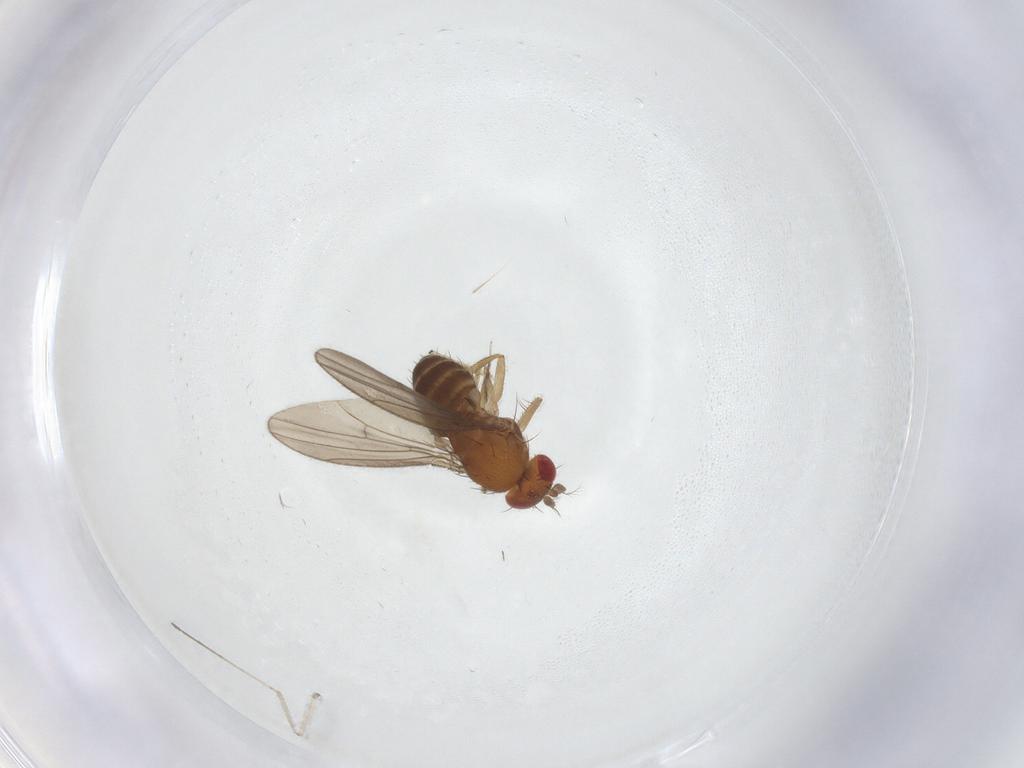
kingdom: Animalia
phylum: Arthropoda
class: Insecta
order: Diptera
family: Drosophilidae
